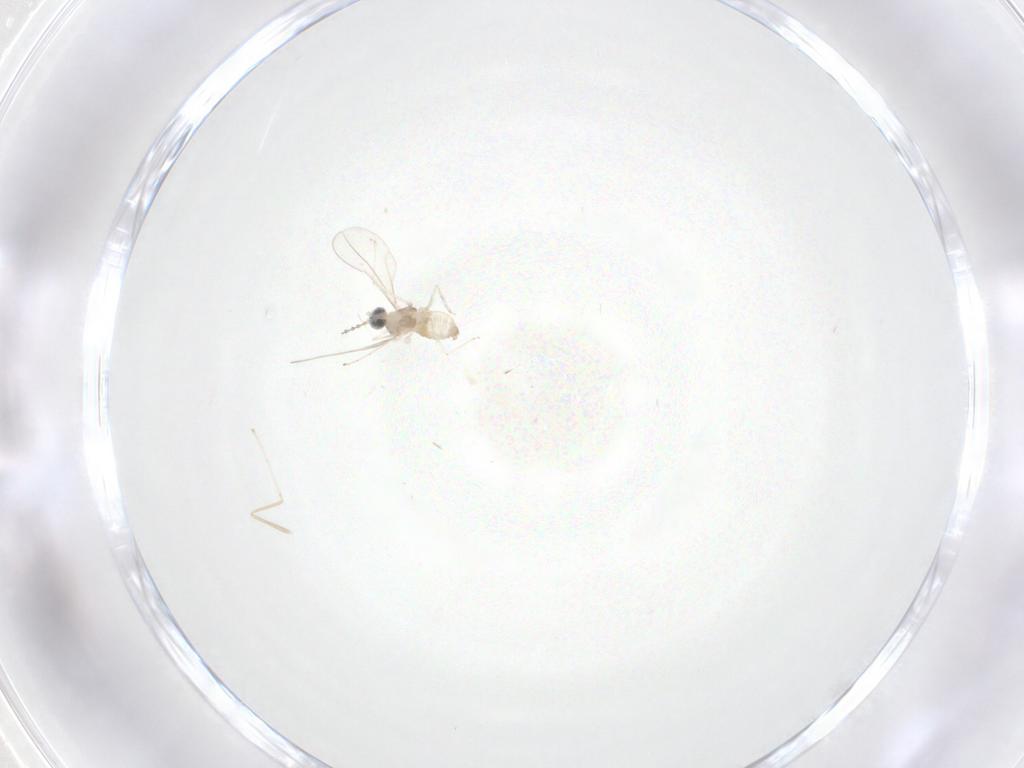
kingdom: Animalia
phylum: Arthropoda
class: Insecta
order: Diptera
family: Cecidomyiidae
